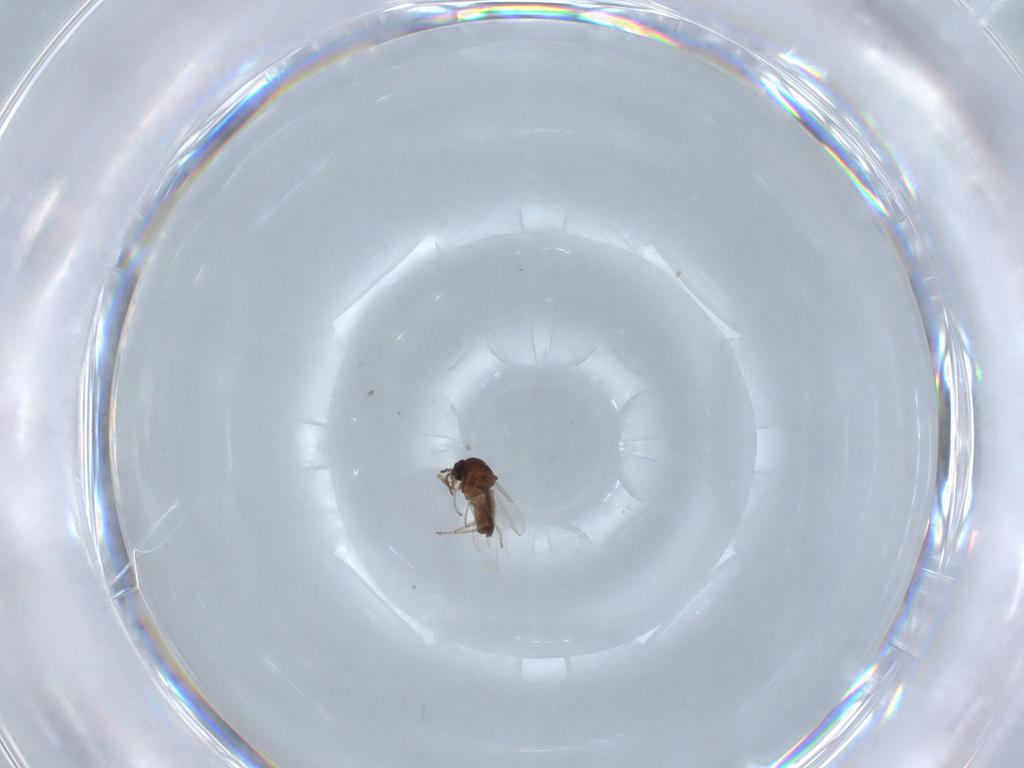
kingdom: Animalia
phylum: Arthropoda
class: Insecta
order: Diptera
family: Ceratopogonidae
